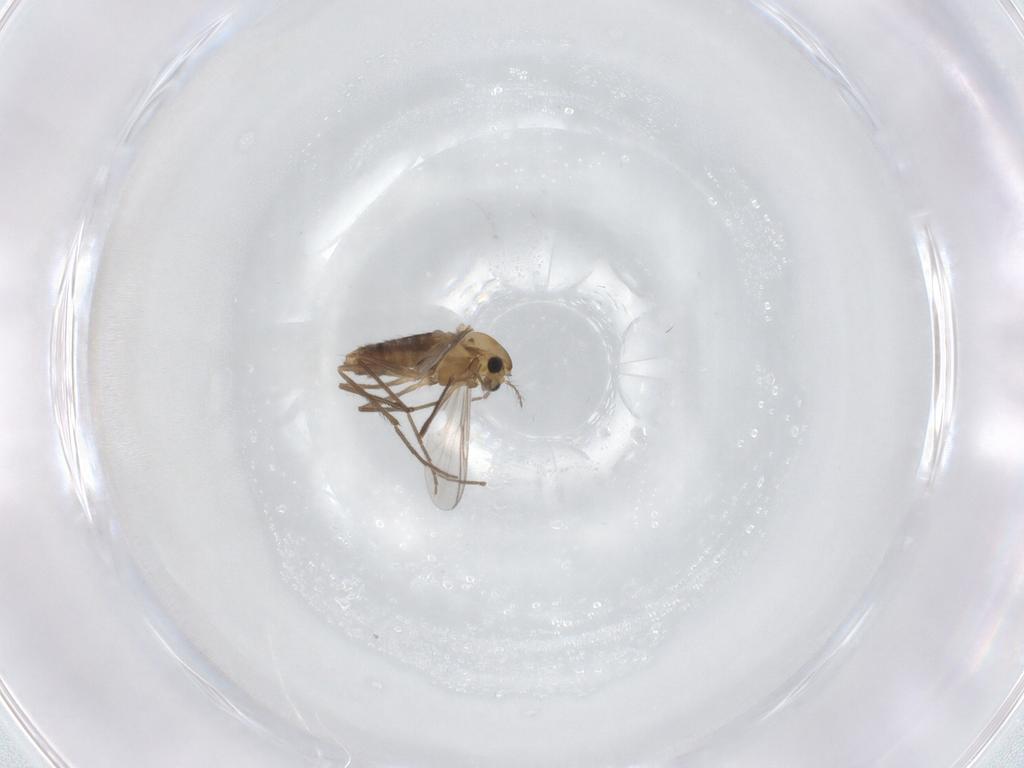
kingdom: Animalia
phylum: Arthropoda
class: Insecta
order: Diptera
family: Chironomidae
